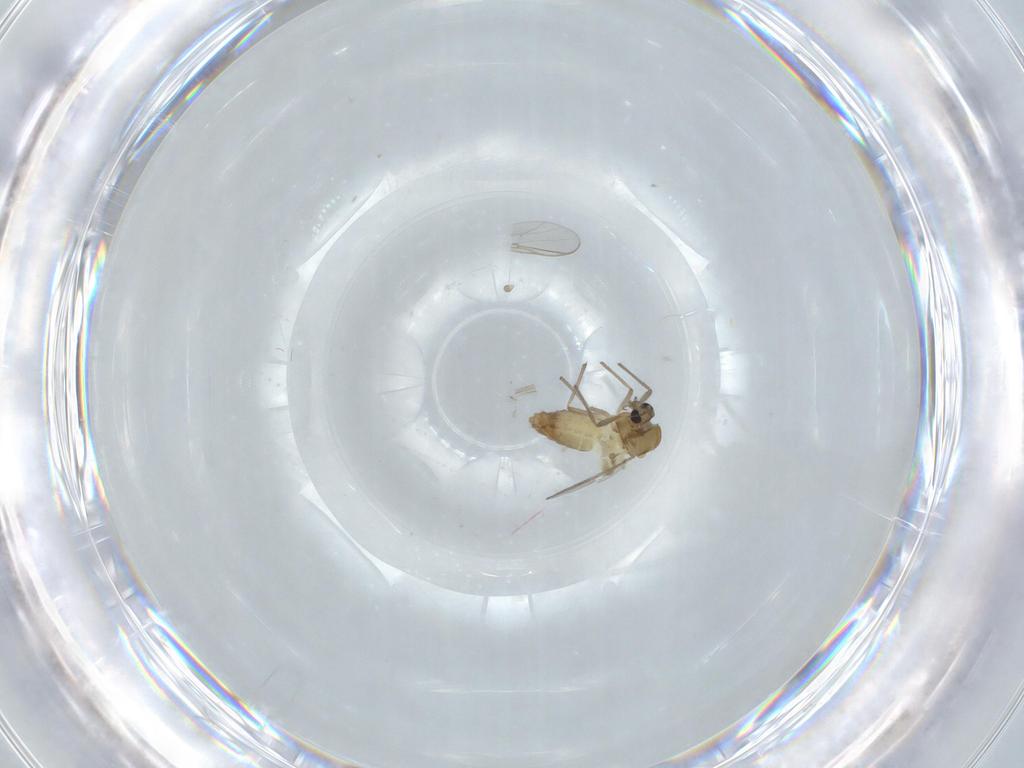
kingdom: Animalia
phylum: Arthropoda
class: Insecta
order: Diptera
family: Chironomidae
